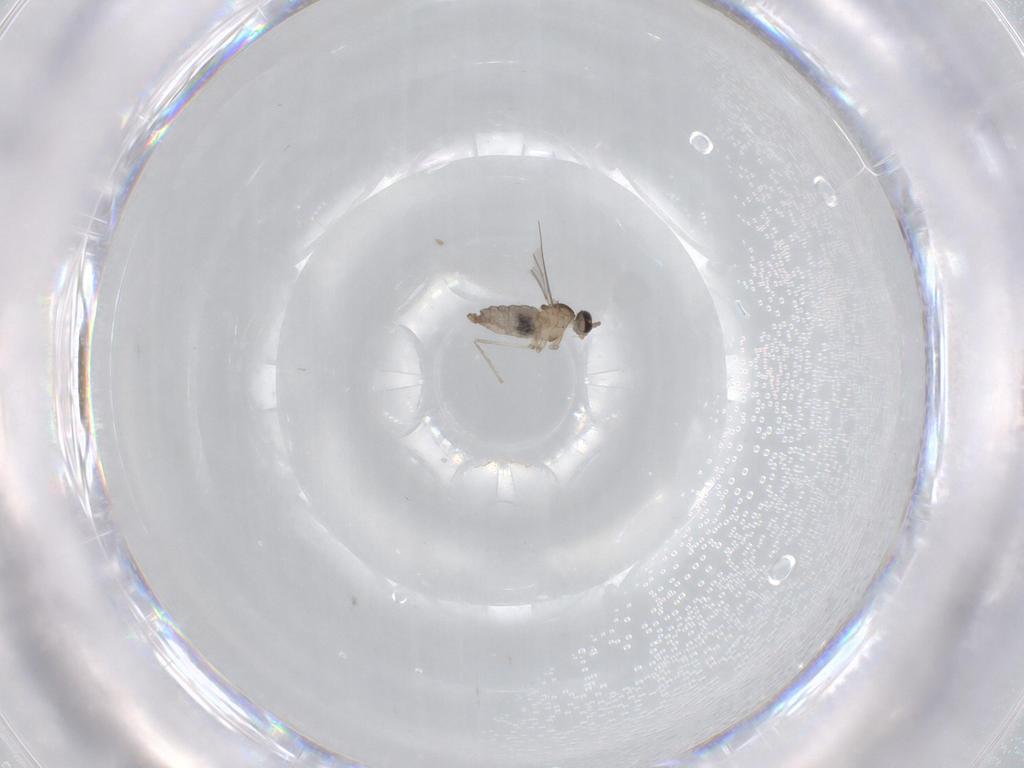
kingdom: Animalia
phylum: Arthropoda
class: Insecta
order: Diptera
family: Cecidomyiidae
